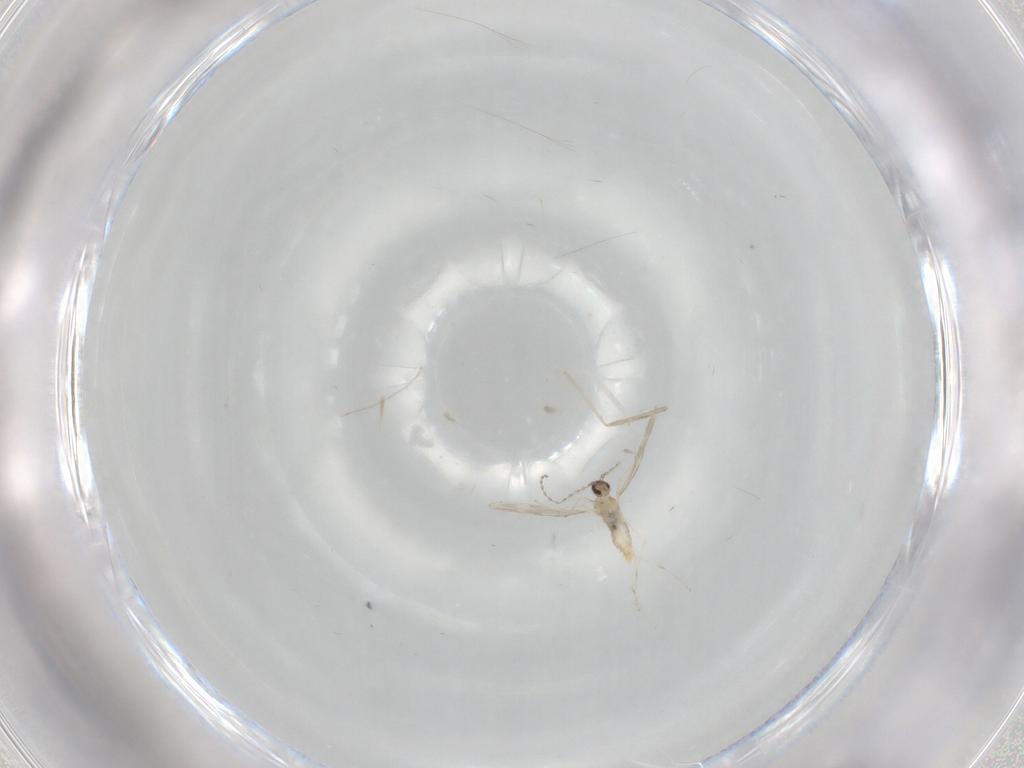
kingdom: Animalia
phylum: Arthropoda
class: Insecta
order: Diptera
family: Cecidomyiidae
